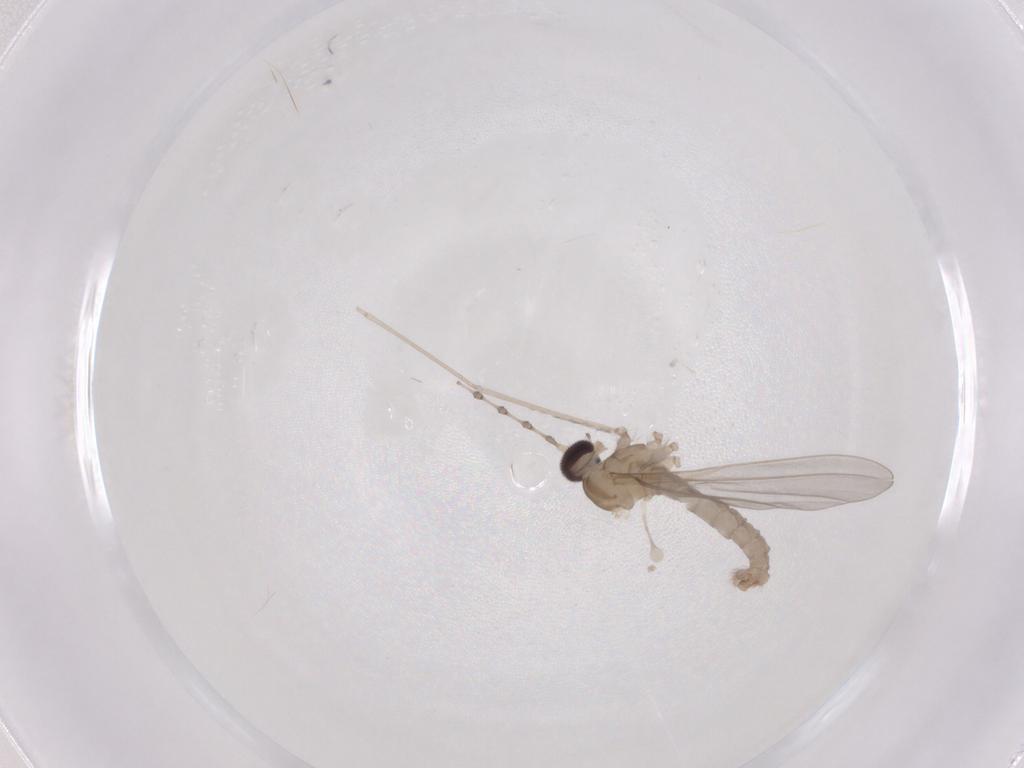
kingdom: Animalia
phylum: Arthropoda
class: Insecta
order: Diptera
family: Cecidomyiidae
